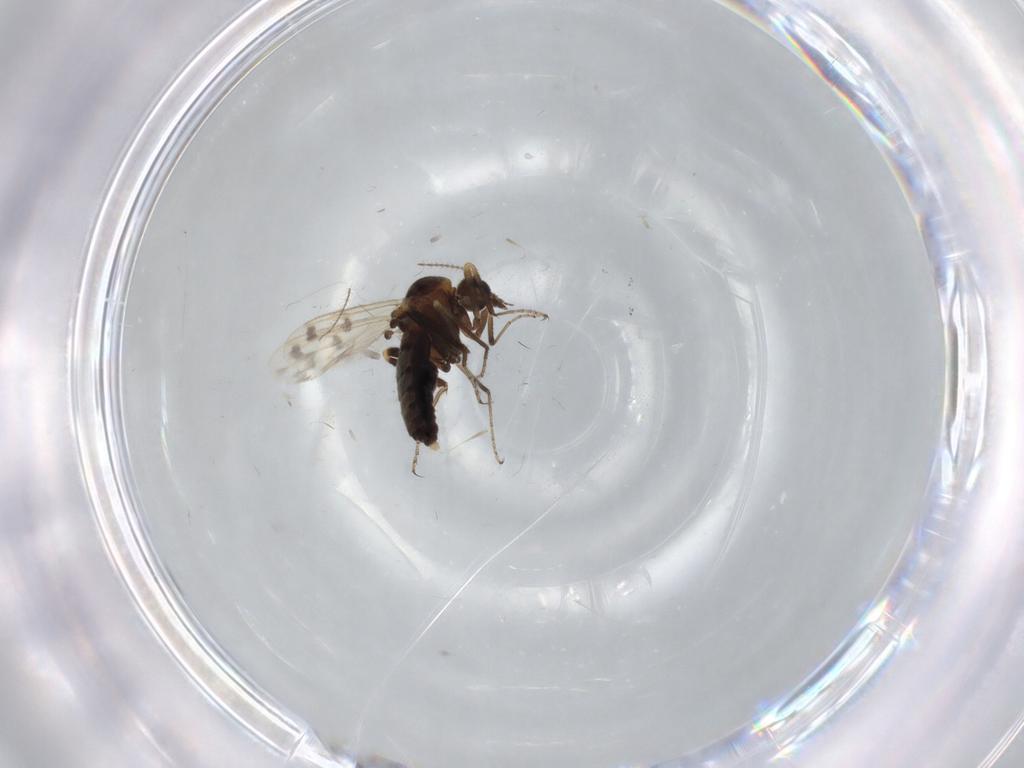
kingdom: Animalia
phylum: Arthropoda
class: Insecta
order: Diptera
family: Ceratopogonidae
